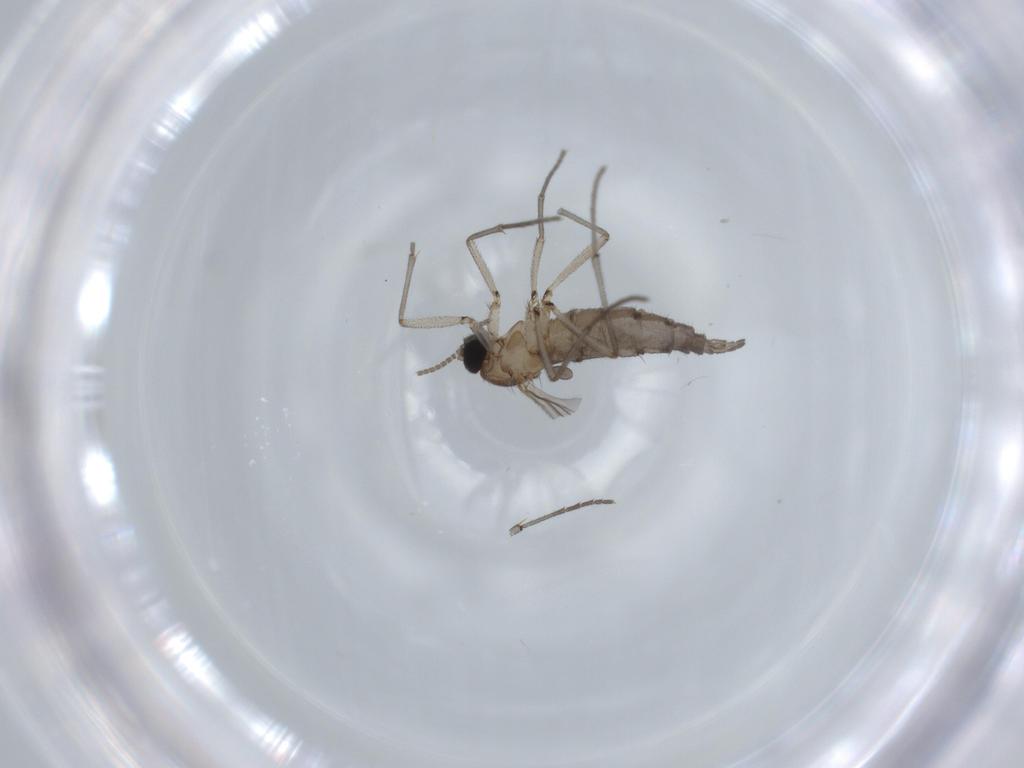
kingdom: Animalia
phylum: Arthropoda
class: Insecta
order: Diptera
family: Sciaridae
